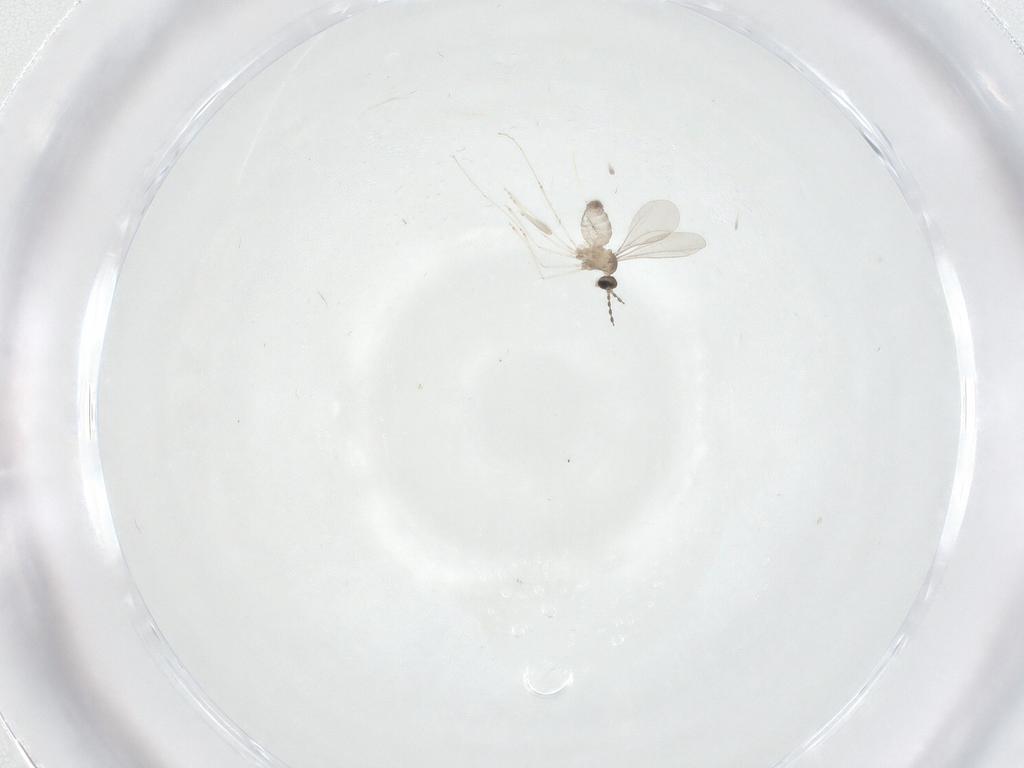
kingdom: Animalia
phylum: Arthropoda
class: Insecta
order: Diptera
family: Cecidomyiidae
